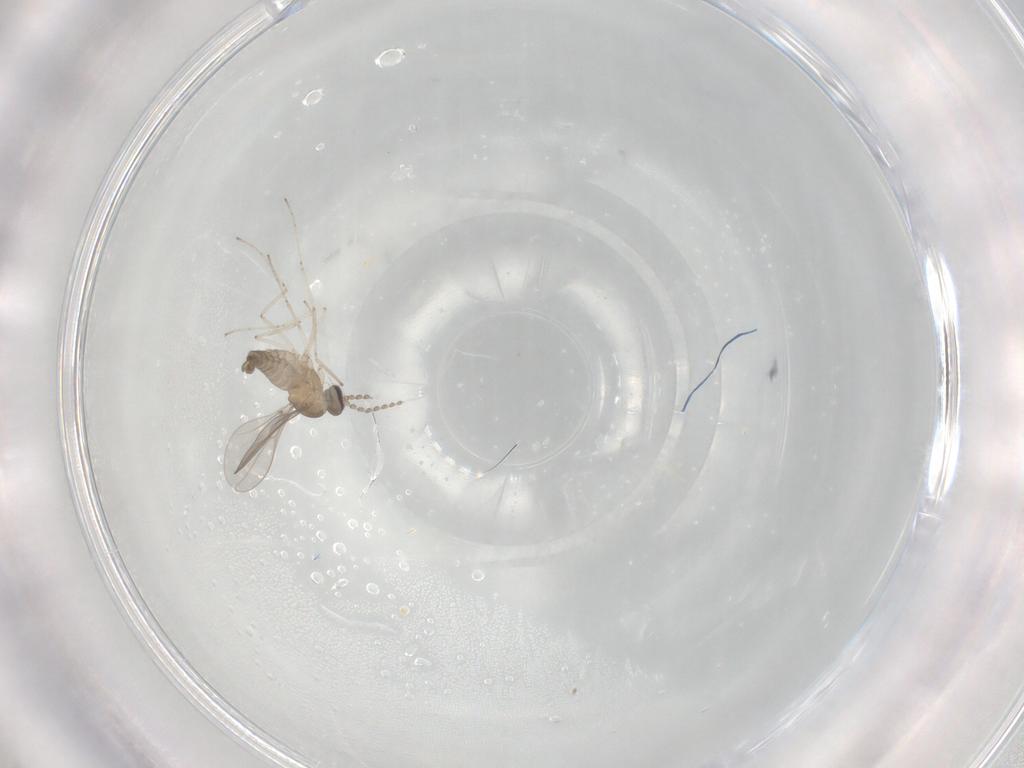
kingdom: Animalia
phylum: Arthropoda
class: Insecta
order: Diptera
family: Cecidomyiidae
